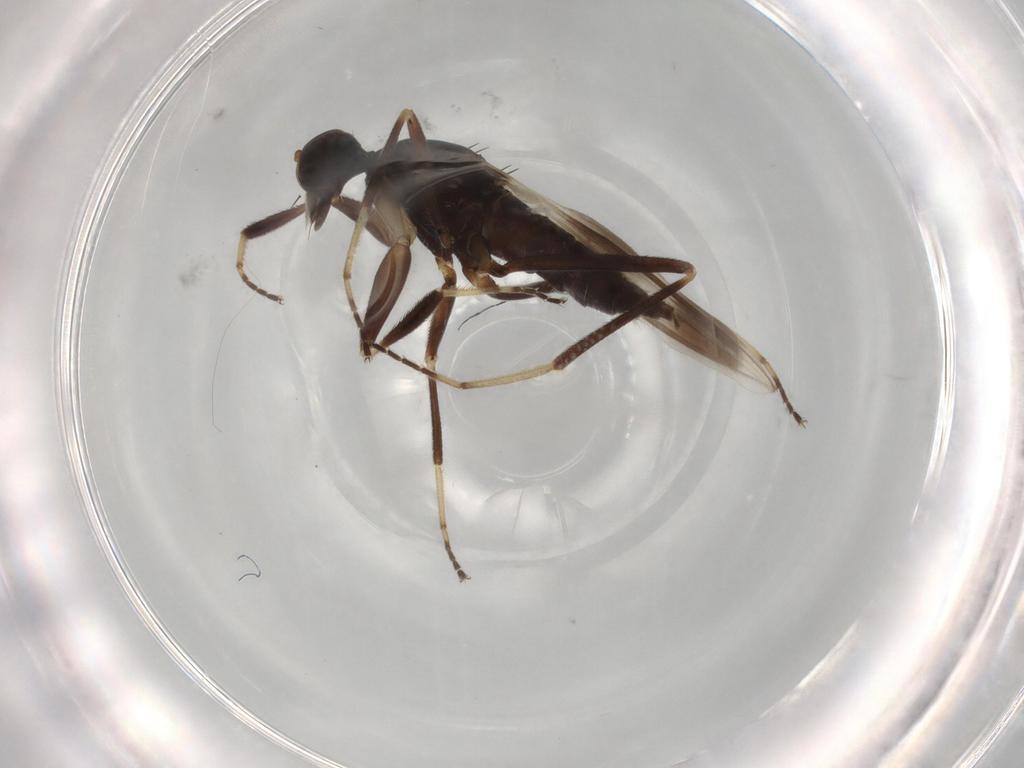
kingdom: Animalia
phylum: Arthropoda
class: Insecta
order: Diptera
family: Hybotidae
